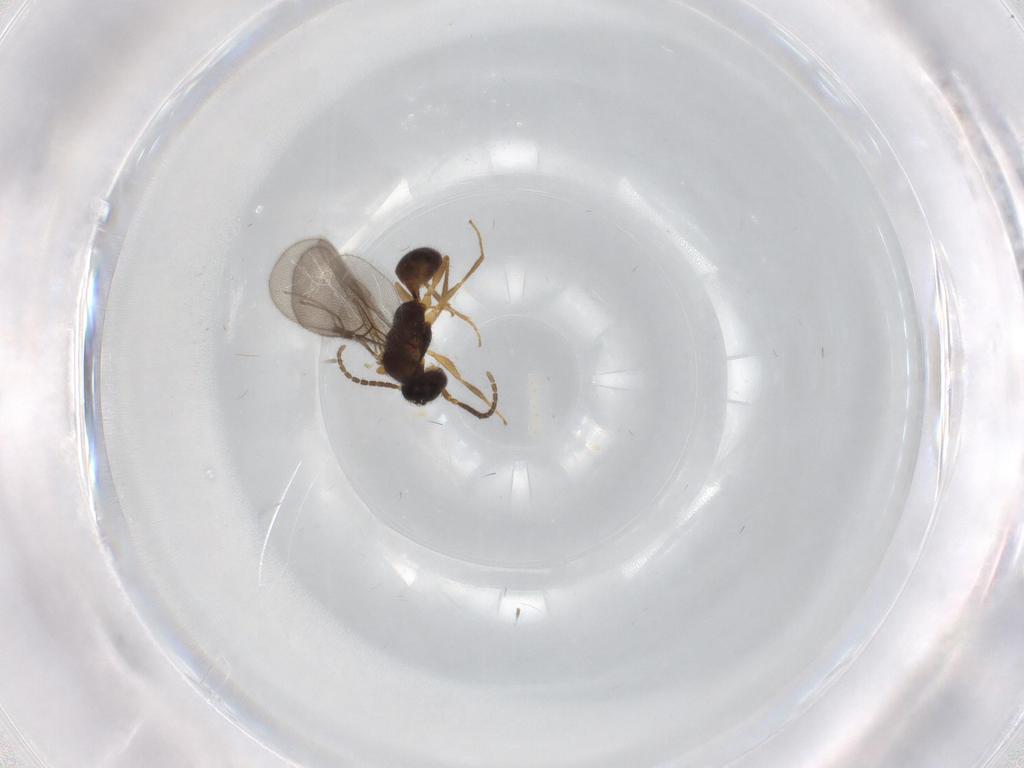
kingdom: Animalia
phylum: Arthropoda
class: Insecta
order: Hymenoptera
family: Bethylidae
